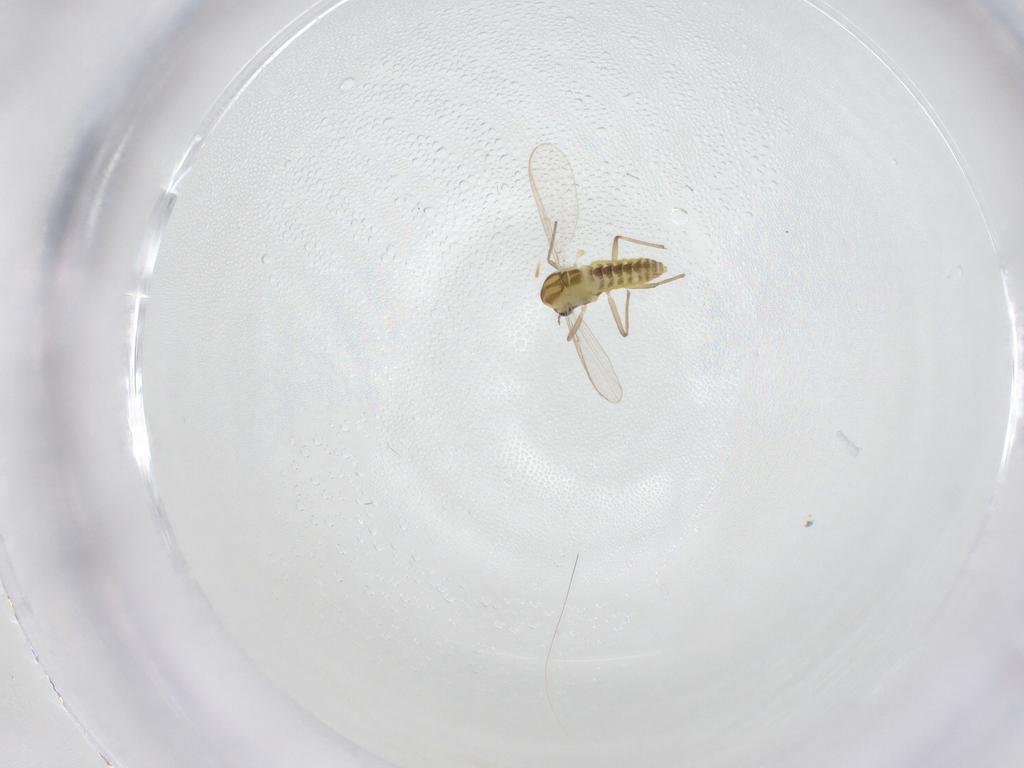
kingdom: Animalia
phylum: Arthropoda
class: Insecta
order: Diptera
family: Chironomidae
